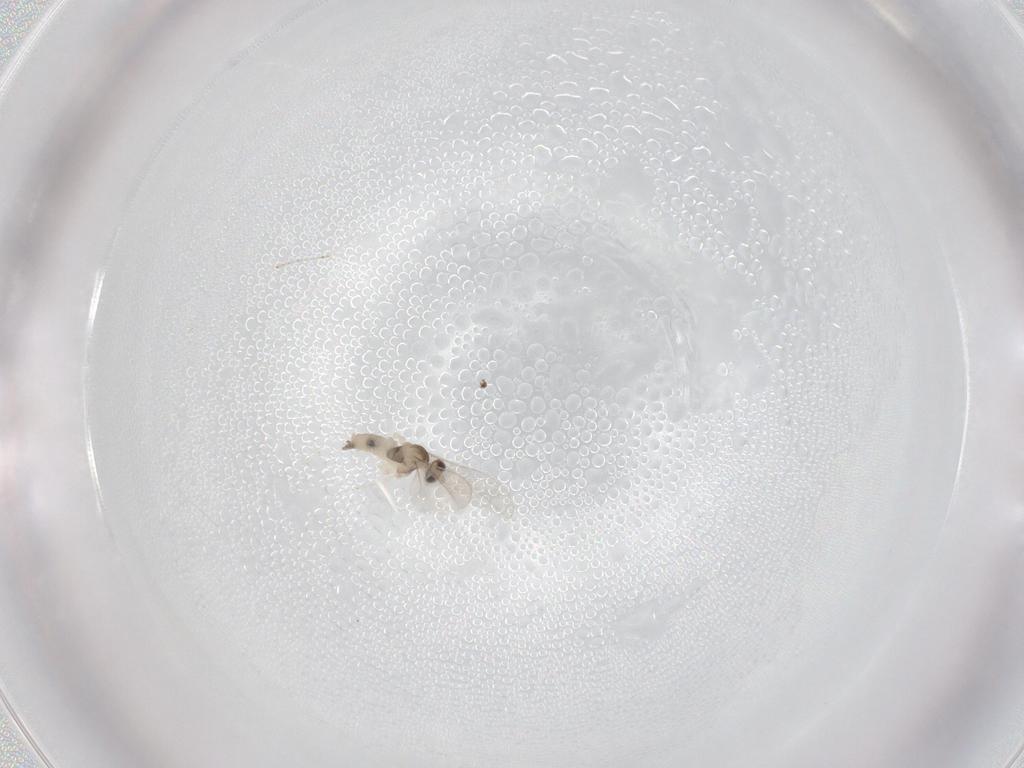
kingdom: Animalia
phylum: Arthropoda
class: Insecta
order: Diptera
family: Cecidomyiidae
